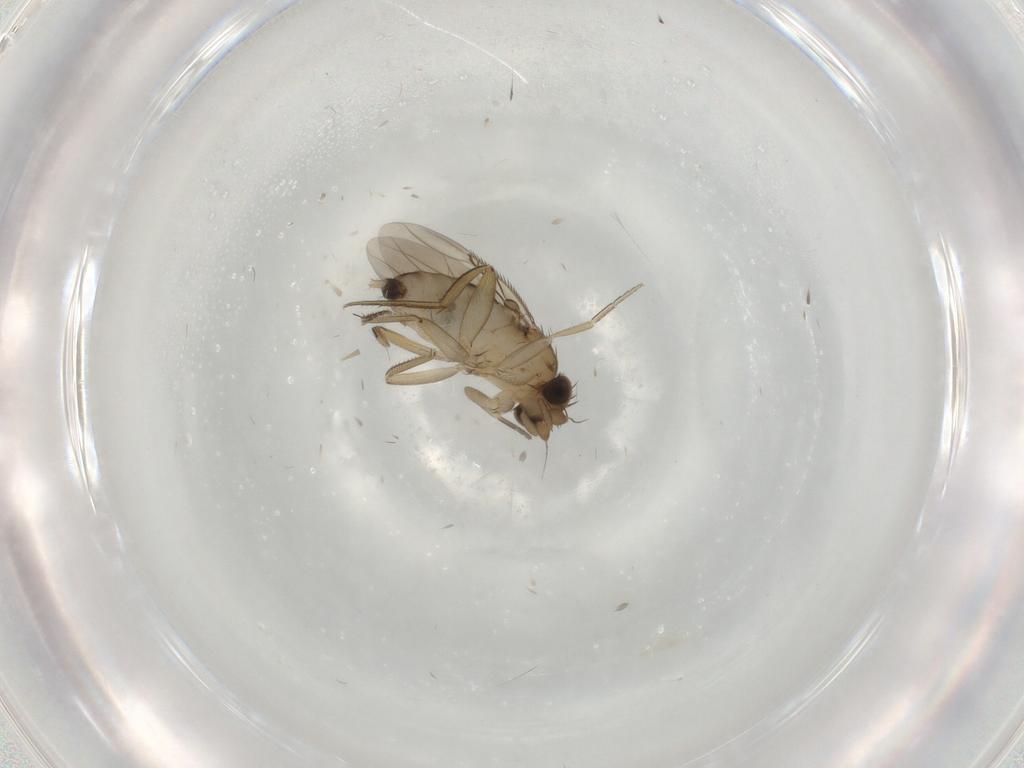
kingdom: Animalia
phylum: Arthropoda
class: Insecta
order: Diptera
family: Phoridae
